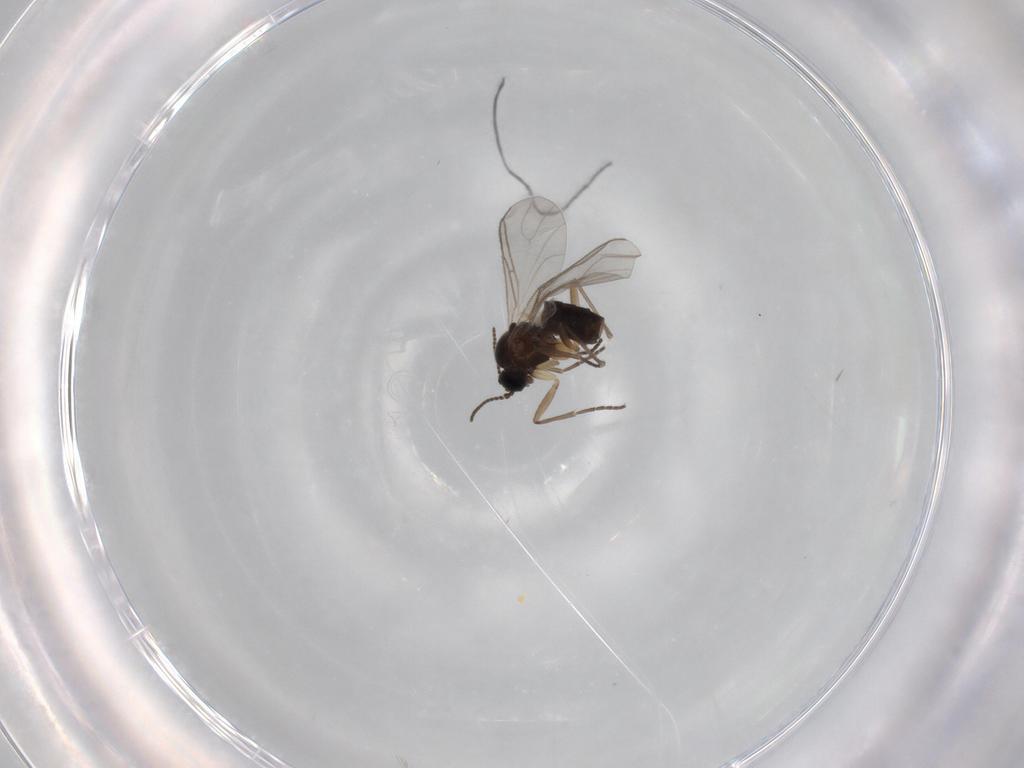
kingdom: Animalia
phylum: Arthropoda
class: Insecta
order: Diptera
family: Sciaridae
